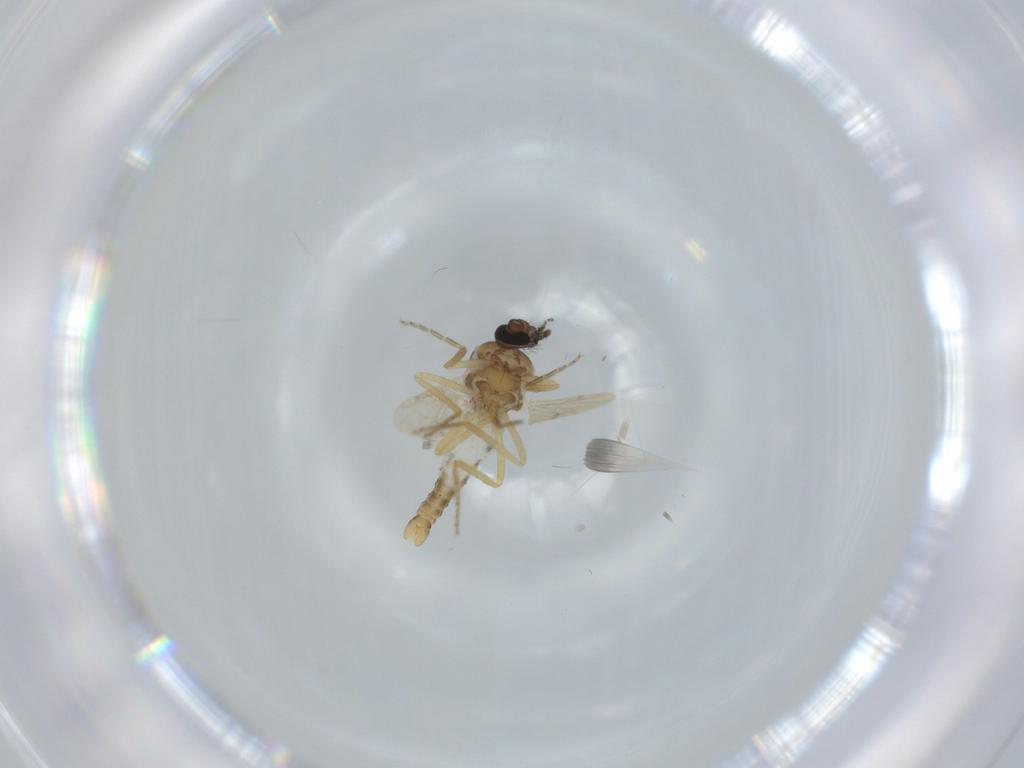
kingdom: Animalia
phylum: Arthropoda
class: Insecta
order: Diptera
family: Ceratopogonidae
